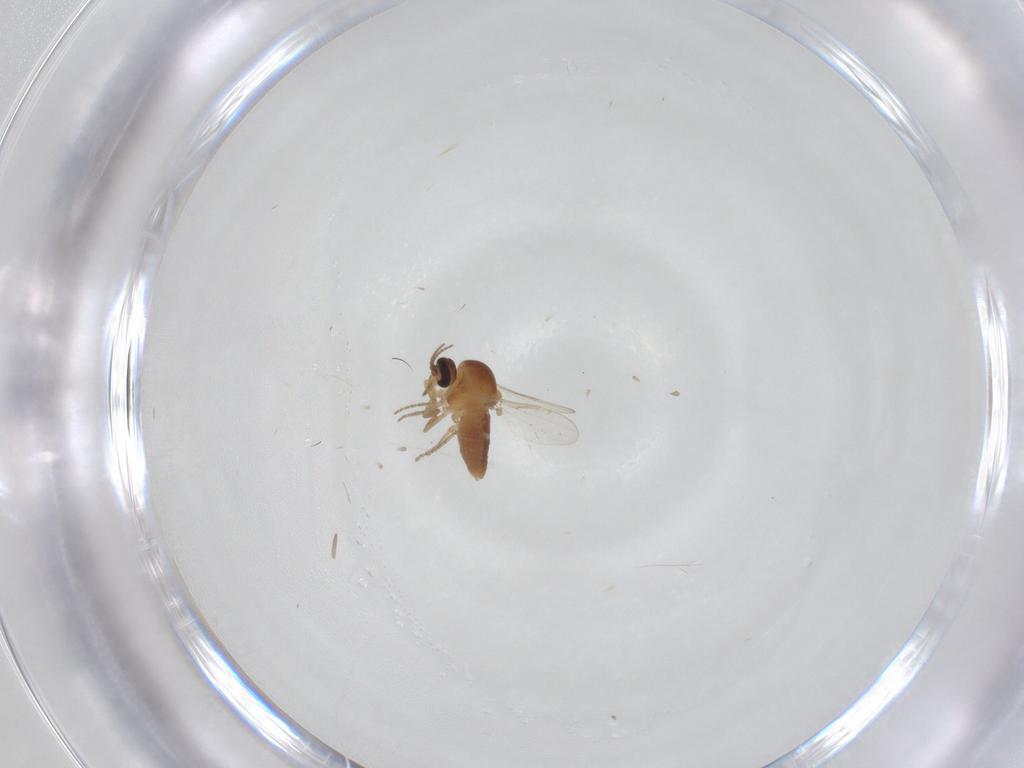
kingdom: Animalia
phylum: Arthropoda
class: Insecta
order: Diptera
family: Ceratopogonidae
